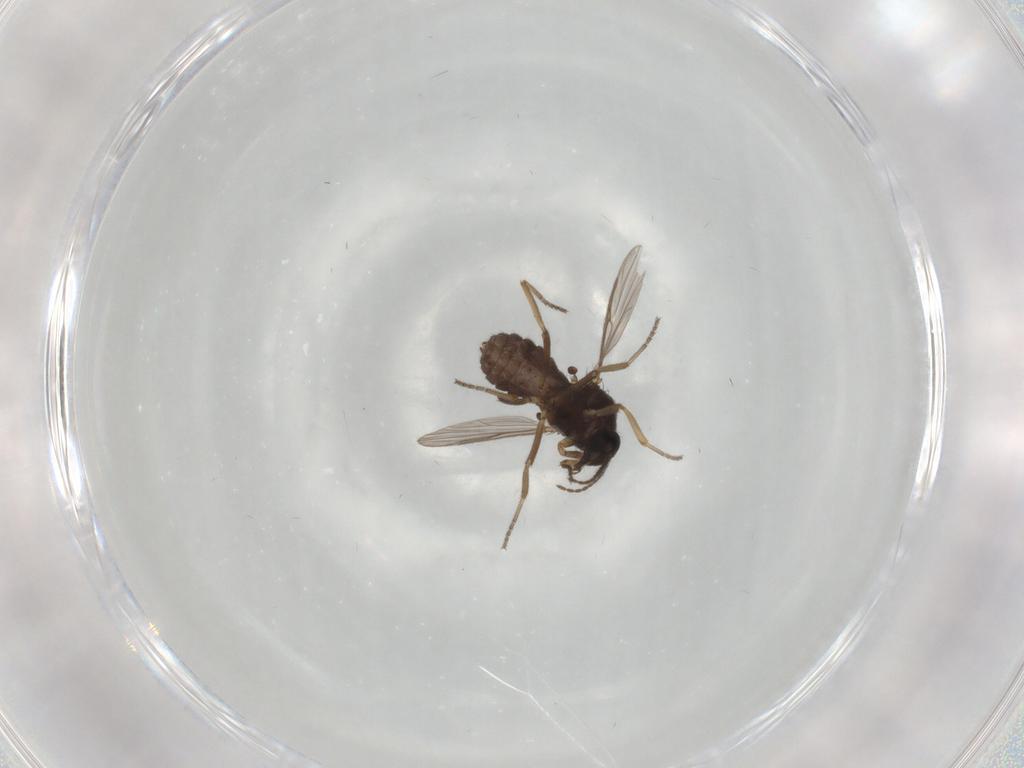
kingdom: Animalia
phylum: Arthropoda
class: Insecta
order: Diptera
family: Ceratopogonidae
